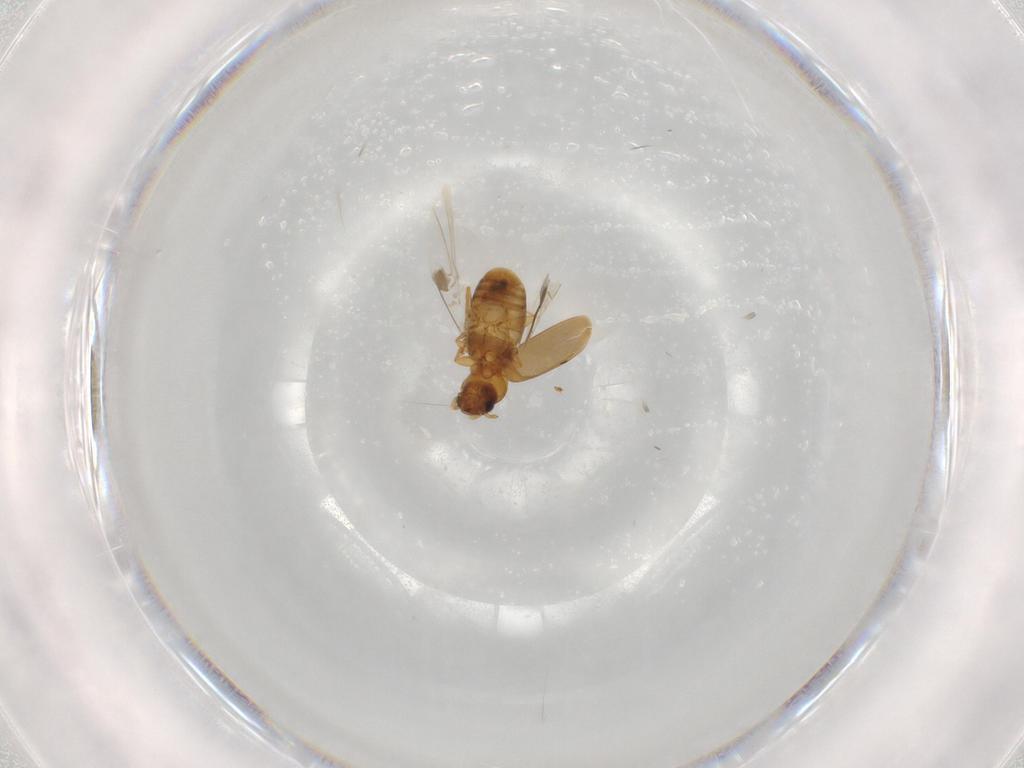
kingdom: Animalia
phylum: Arthropoda
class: Insecta
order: Coleoptera
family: Carabidae
